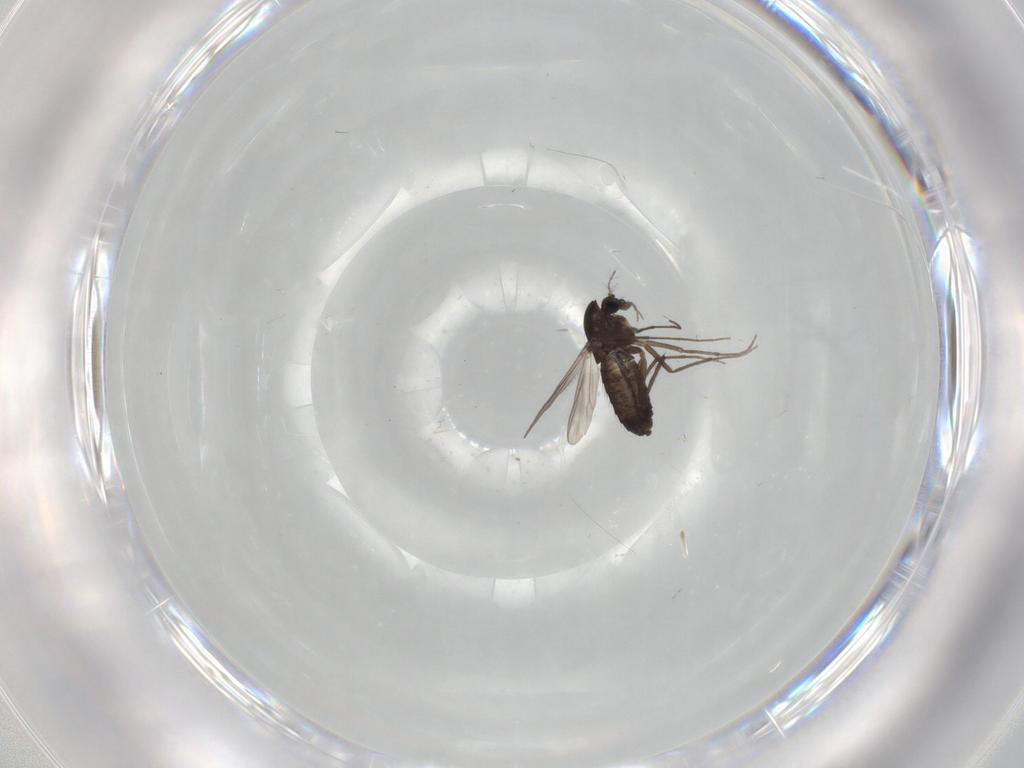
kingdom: Animalia
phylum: Arthropoda
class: Insecta
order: Diptera
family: Chironomidae
